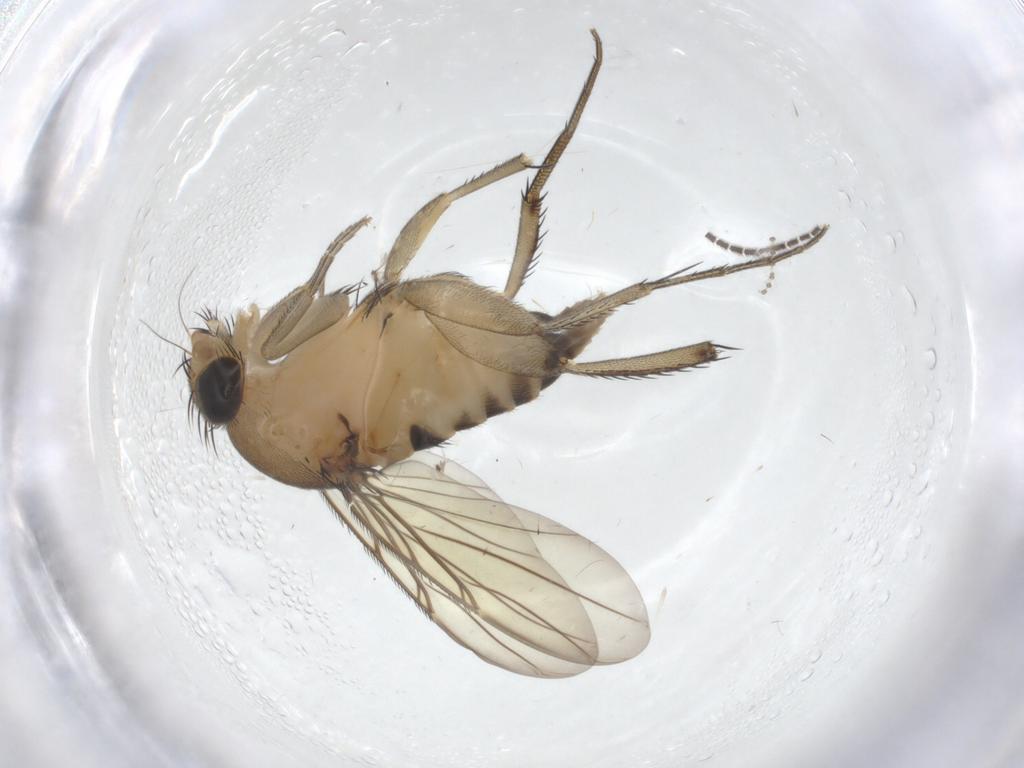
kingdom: Animalia
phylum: Arthropoda
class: Insecta
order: Diptera
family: Phoridae
